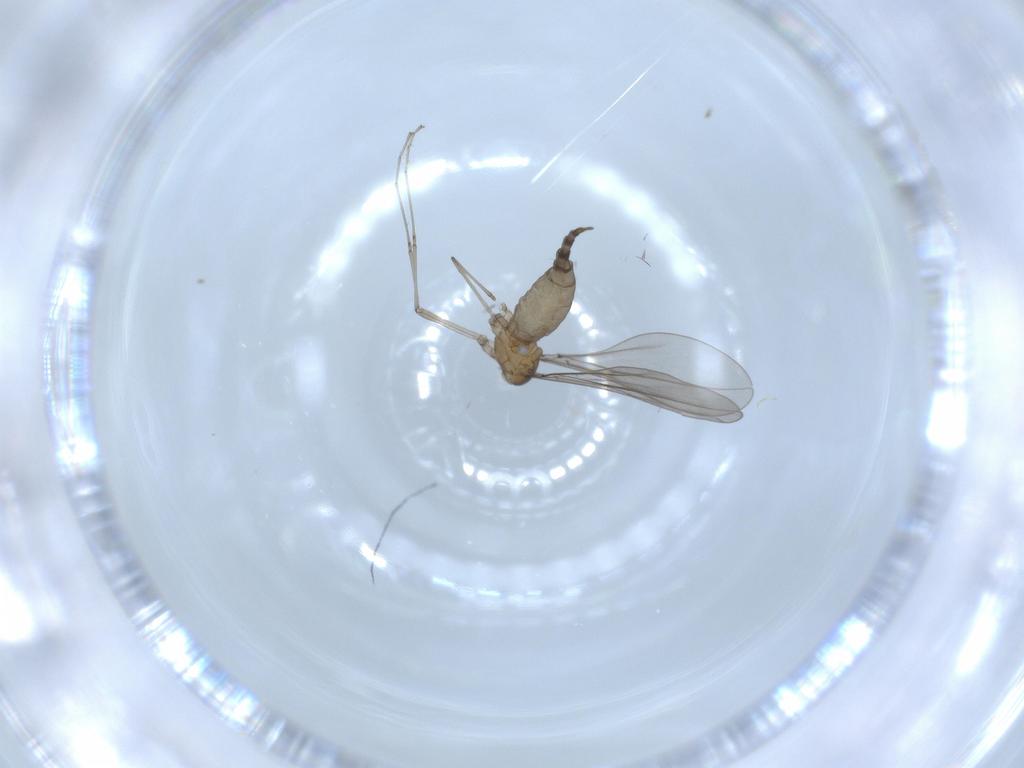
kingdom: Animalia
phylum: Arthropoda
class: Insecta
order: Diptera
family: Cecidomyiidae
